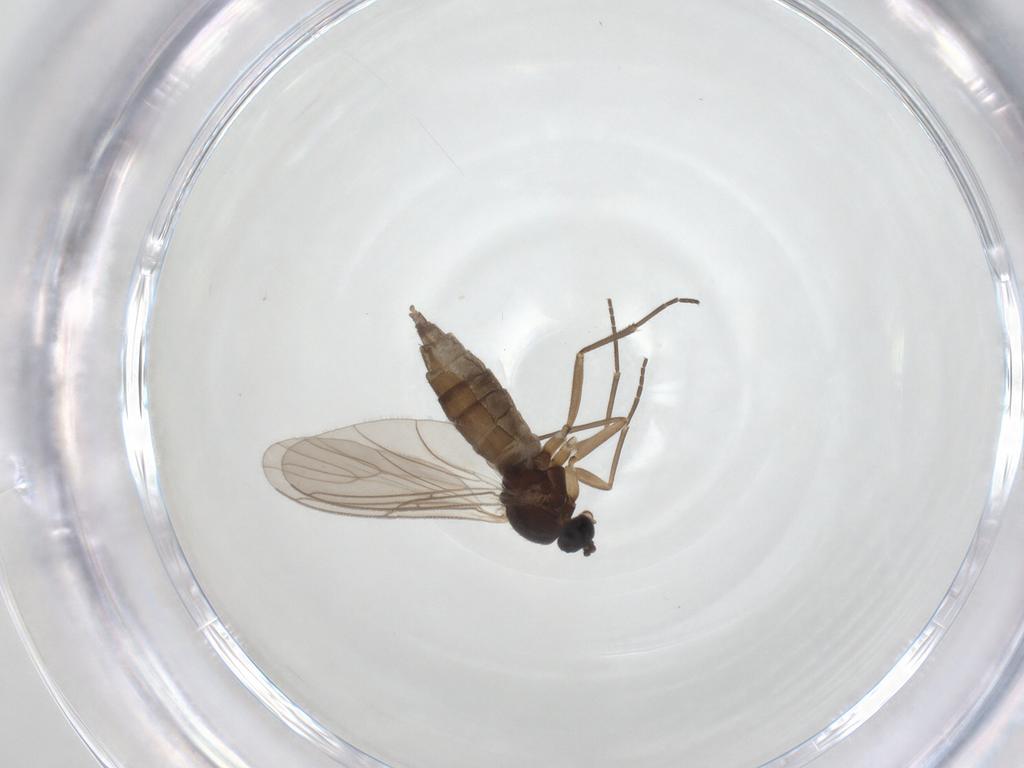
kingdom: Animalia
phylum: Arthropoda
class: Insecta
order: Diptera
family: Sciaridae
